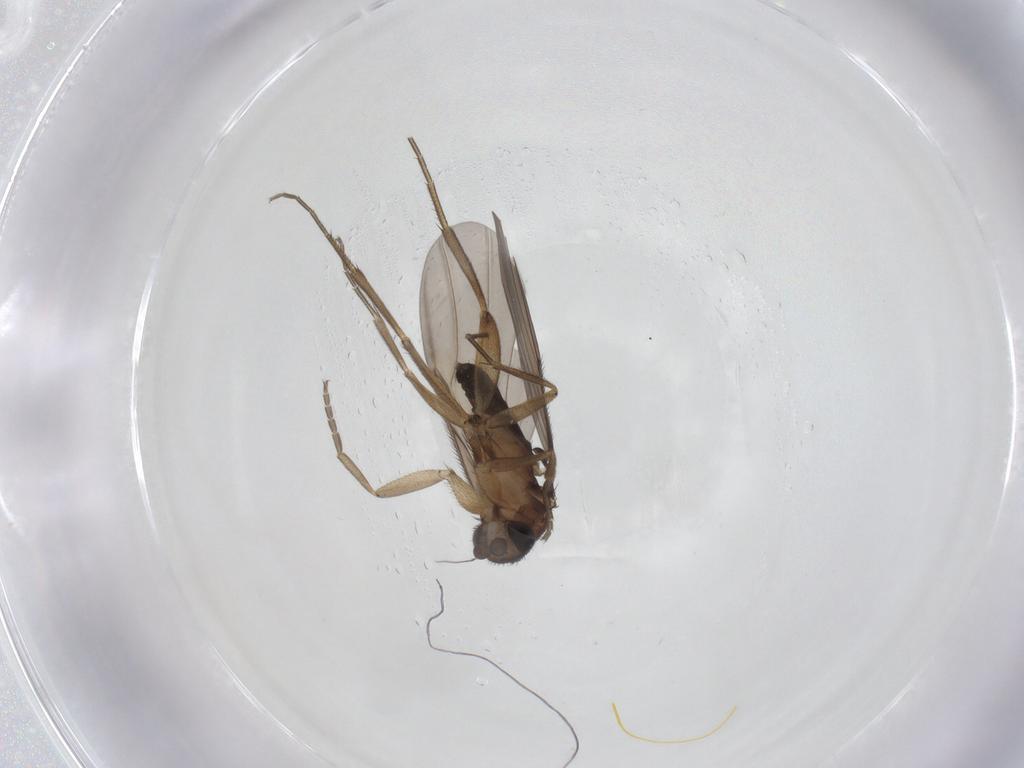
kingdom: Animalia
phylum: Arthropoda
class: Insecta
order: Diptera
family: Phoridae
